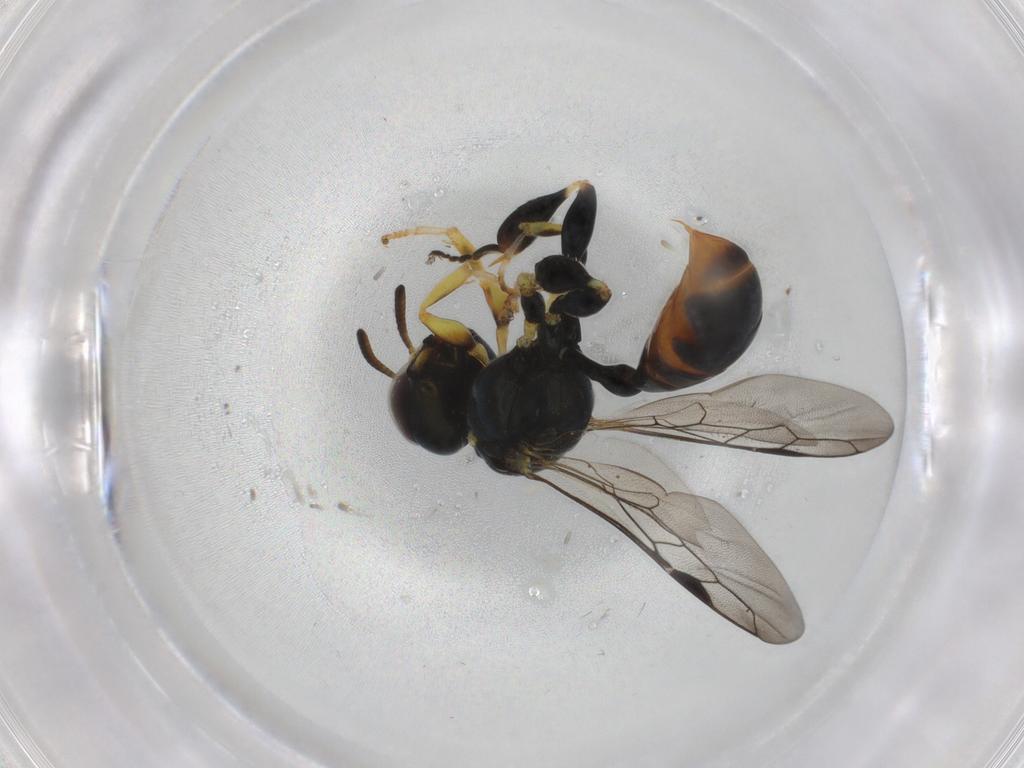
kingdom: Animalia
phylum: Arthropoda
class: Insecta
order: Hymenoptera
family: Crabronidae
